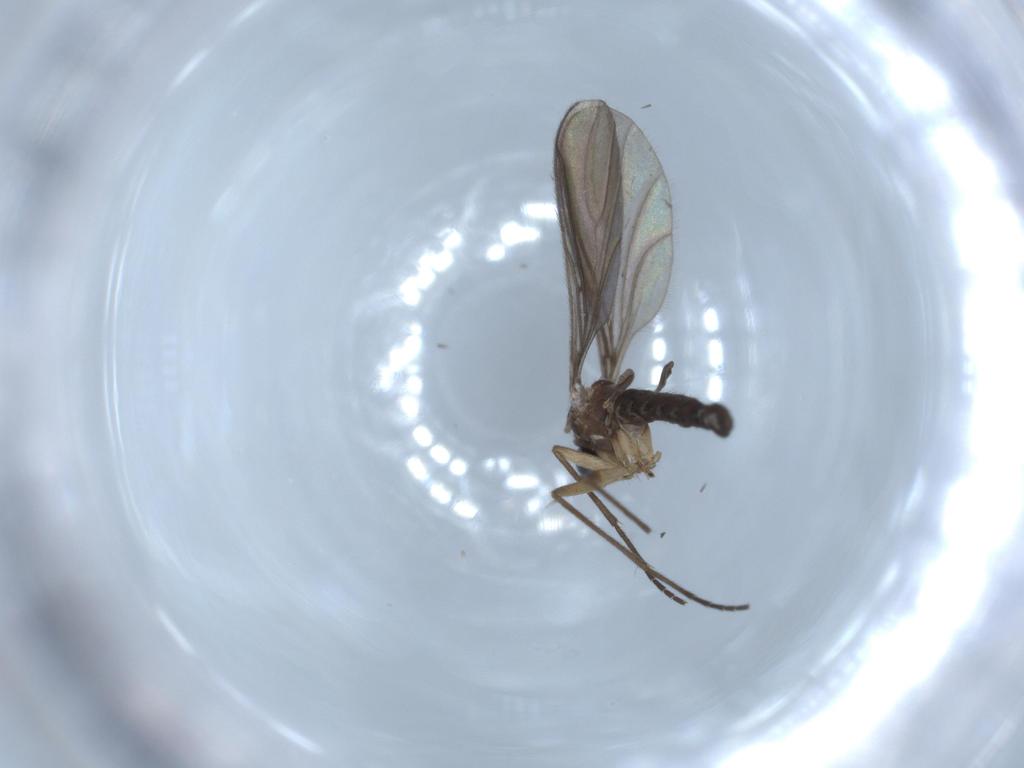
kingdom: Animalia
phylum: Arthropoda
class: Insecta
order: Diptera
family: Sciaridae
